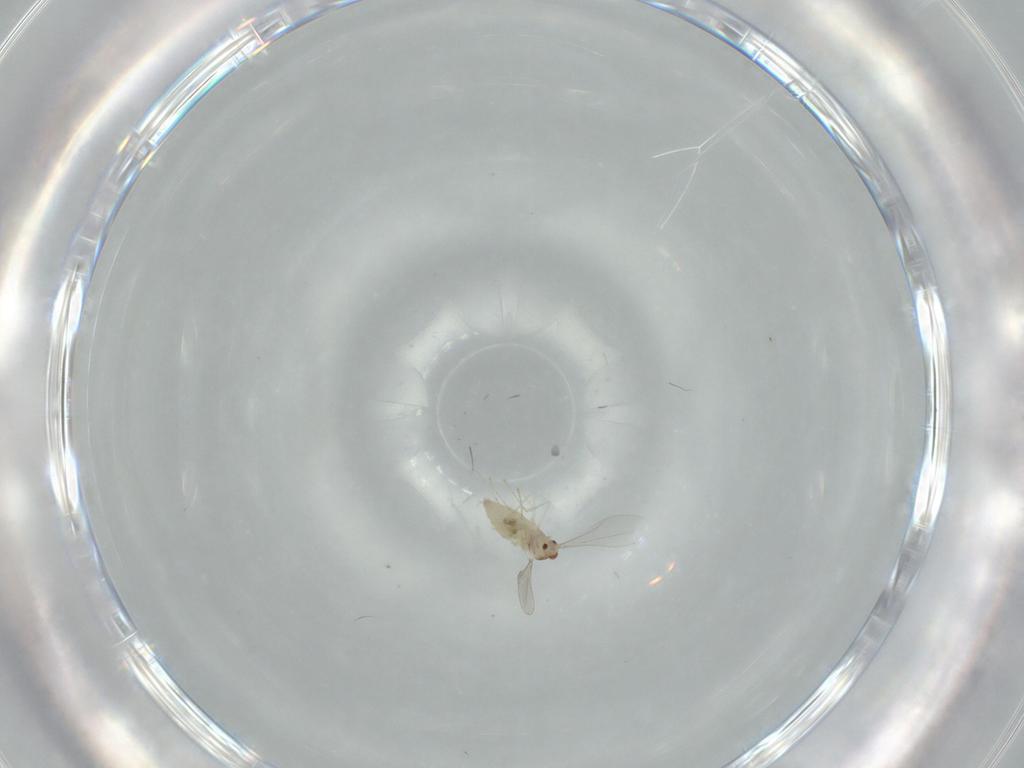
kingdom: Animalia
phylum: Arthropoda
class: Insecta
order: Diptera
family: Cecidomyiidae
